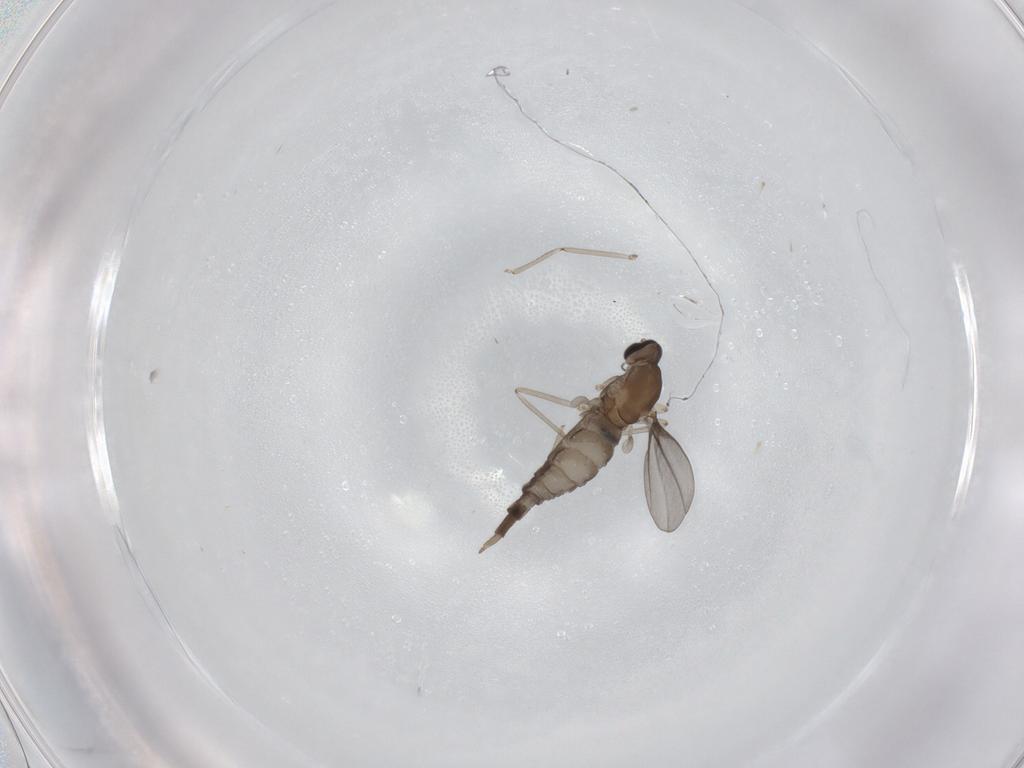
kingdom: Animalia
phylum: Arthropoda
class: Insecta
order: Diptera
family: Chironomidae
